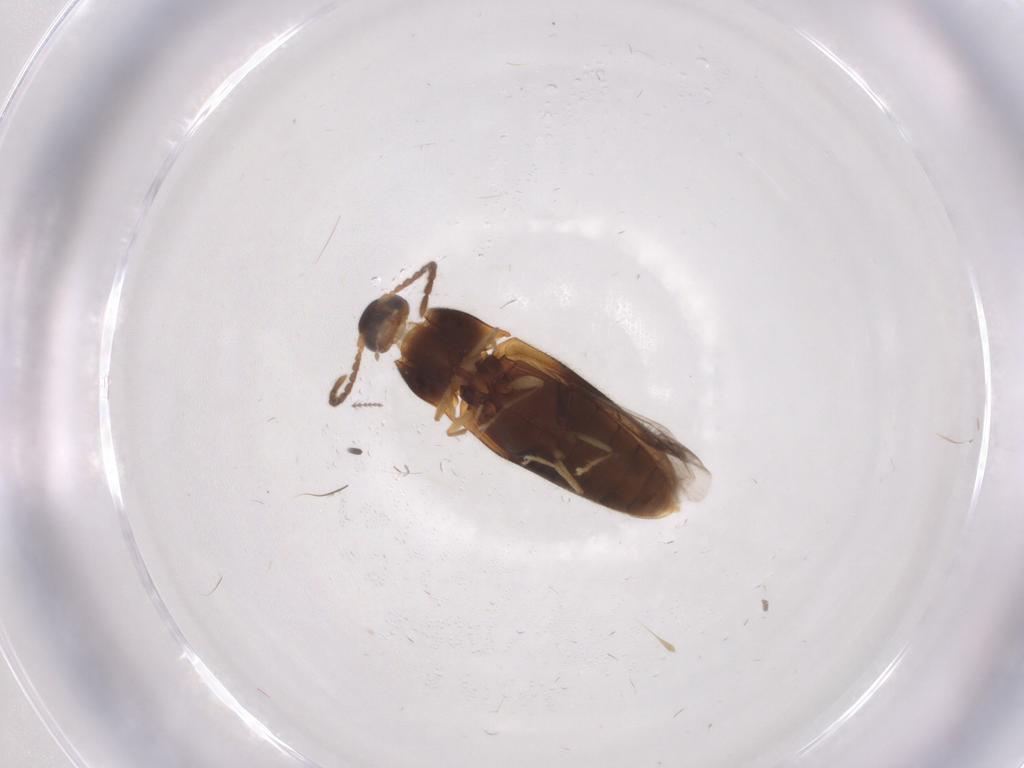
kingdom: Animalia
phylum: Arthropoda
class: Insecta
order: Coleoptera
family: Elateridae
